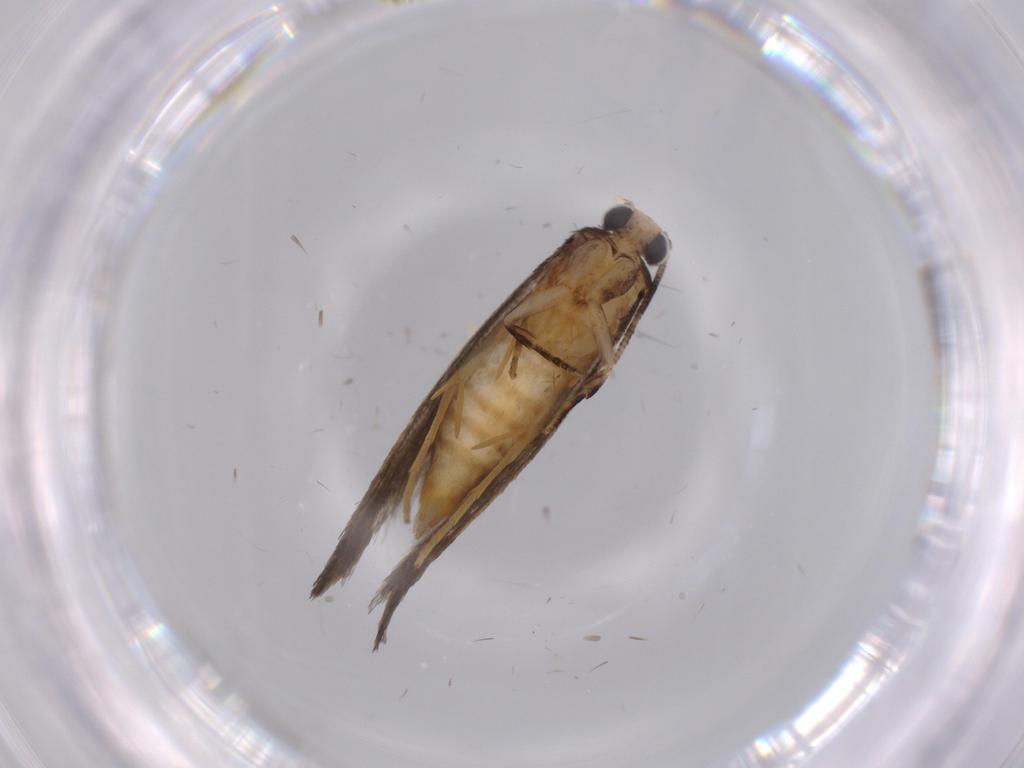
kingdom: Animalia
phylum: Arthropoda
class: Insecta
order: Lepidoptera
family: Tineidae
